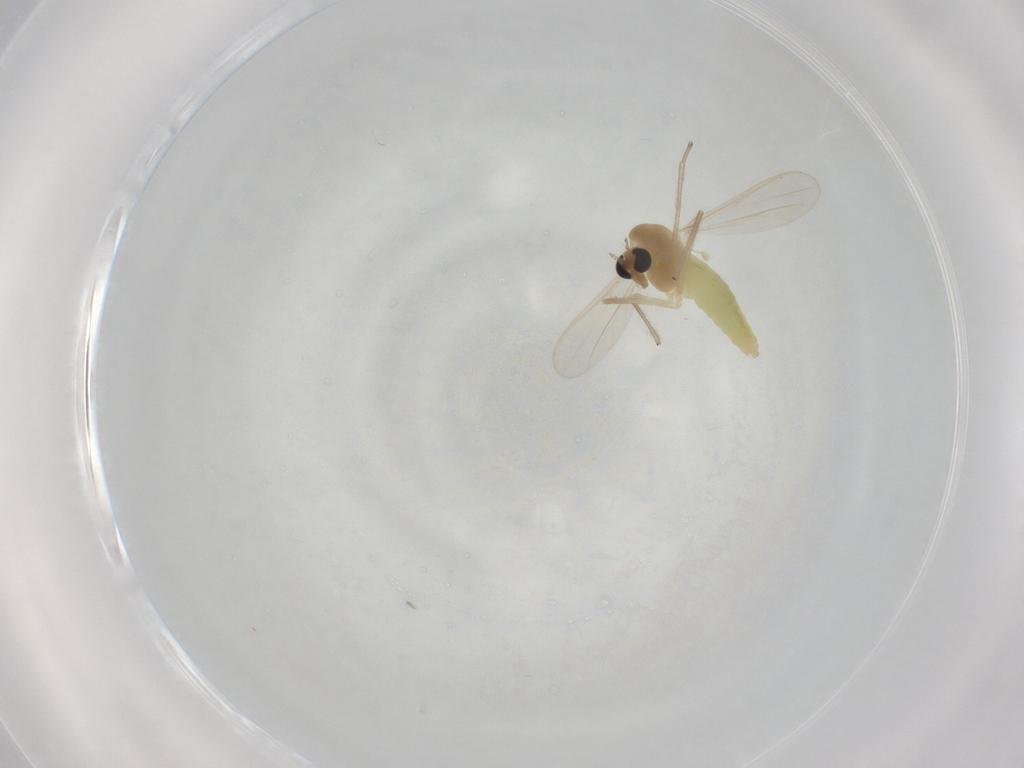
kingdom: Animalia
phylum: Arthropoda
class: Insecta
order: Diptera
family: Chironomidae
